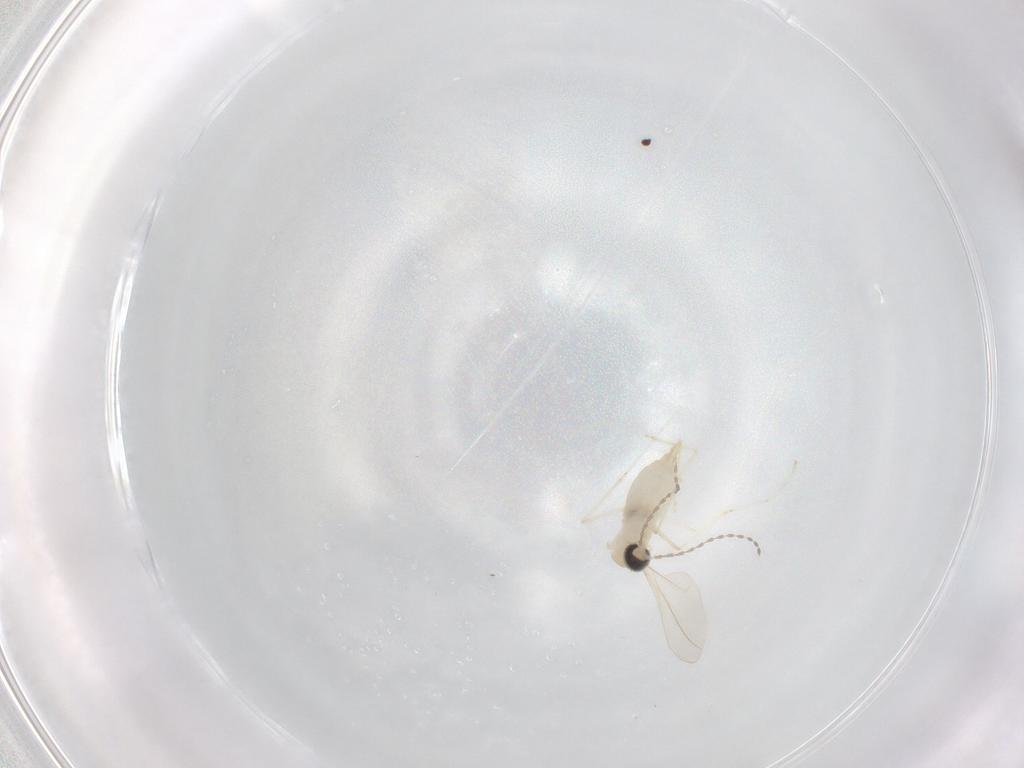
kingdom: Animalia
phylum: Arthropoda
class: Insecta
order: Diptera
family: Cecidomyiidae
